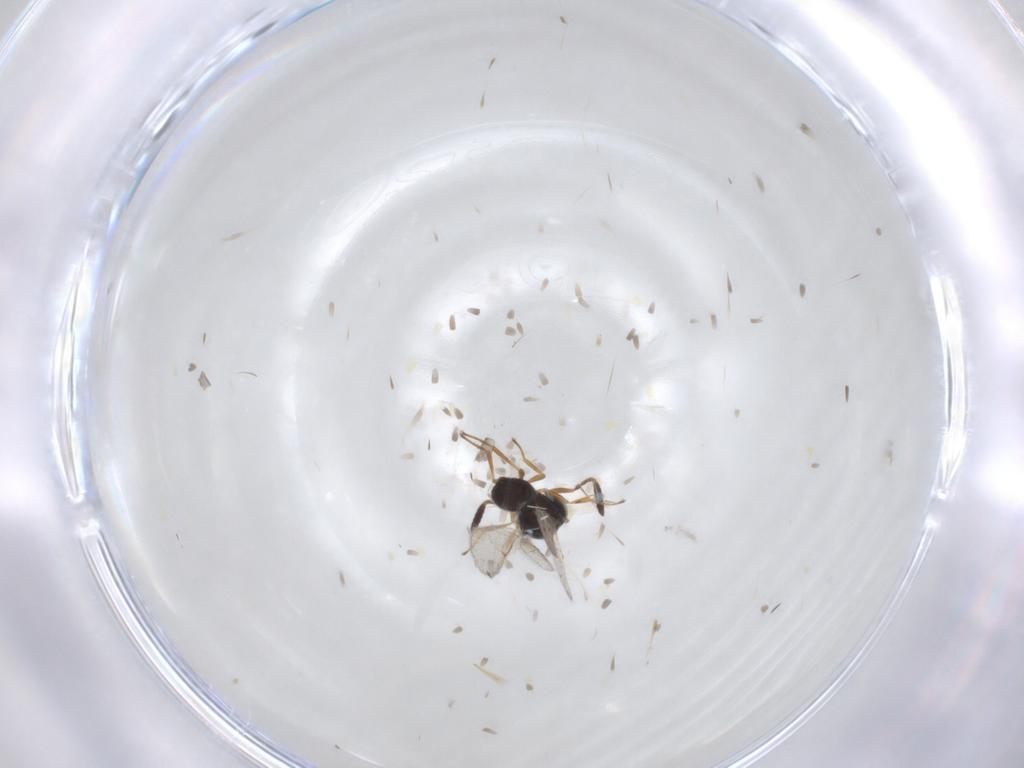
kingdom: Animalia
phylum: Arthropoda
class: Insecta
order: Hymenoptera
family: Scelionidae
